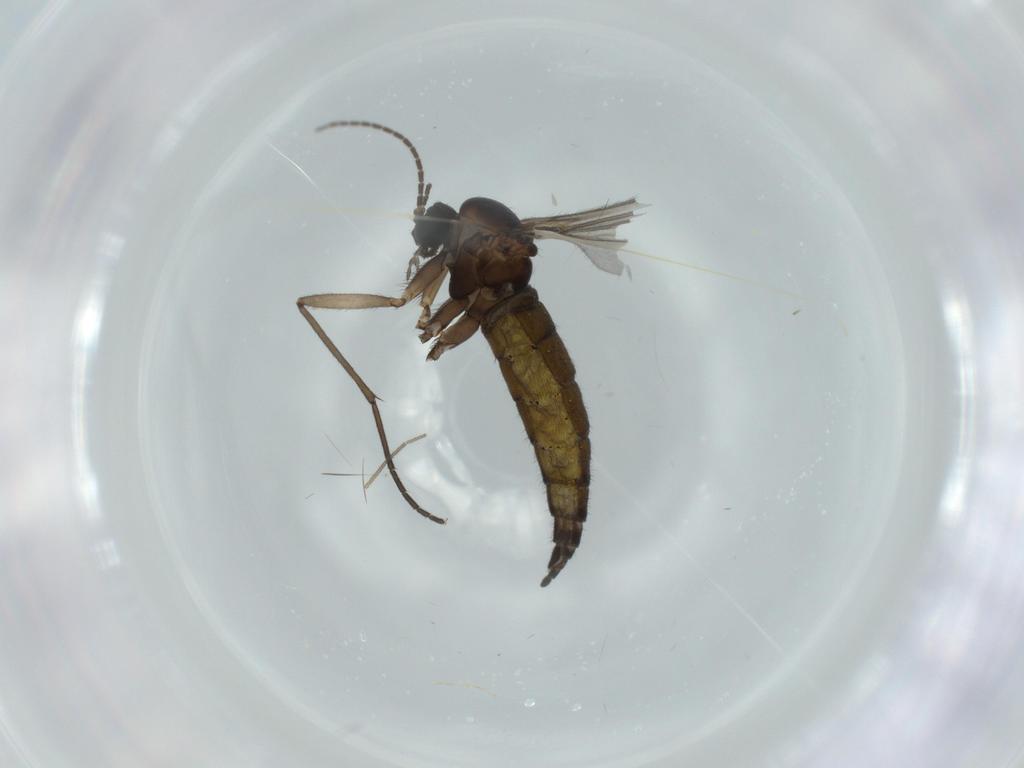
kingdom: Animalia
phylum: Arthropoda
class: Insecta
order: Diptera
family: Sciaridae
